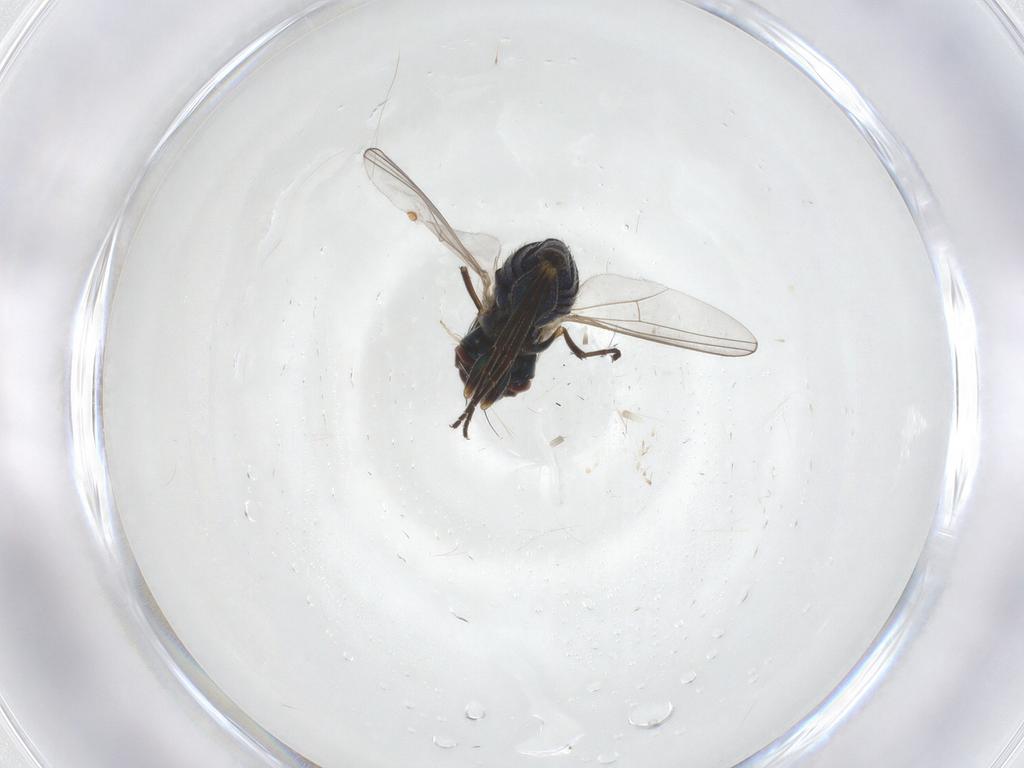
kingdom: Animalia
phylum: Arthropoda
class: Insecta
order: Diptera
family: Dolichopodidae
